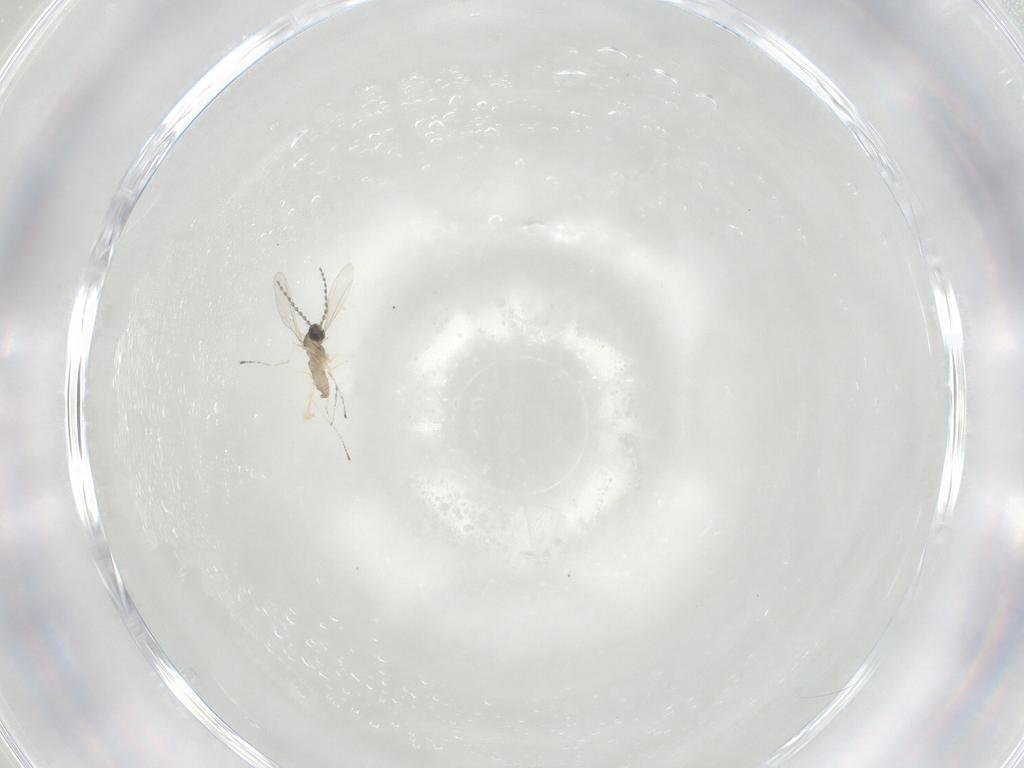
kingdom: Animalia
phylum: Arthropoda
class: Insecta
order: Diptera
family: Cecidomyiidae
